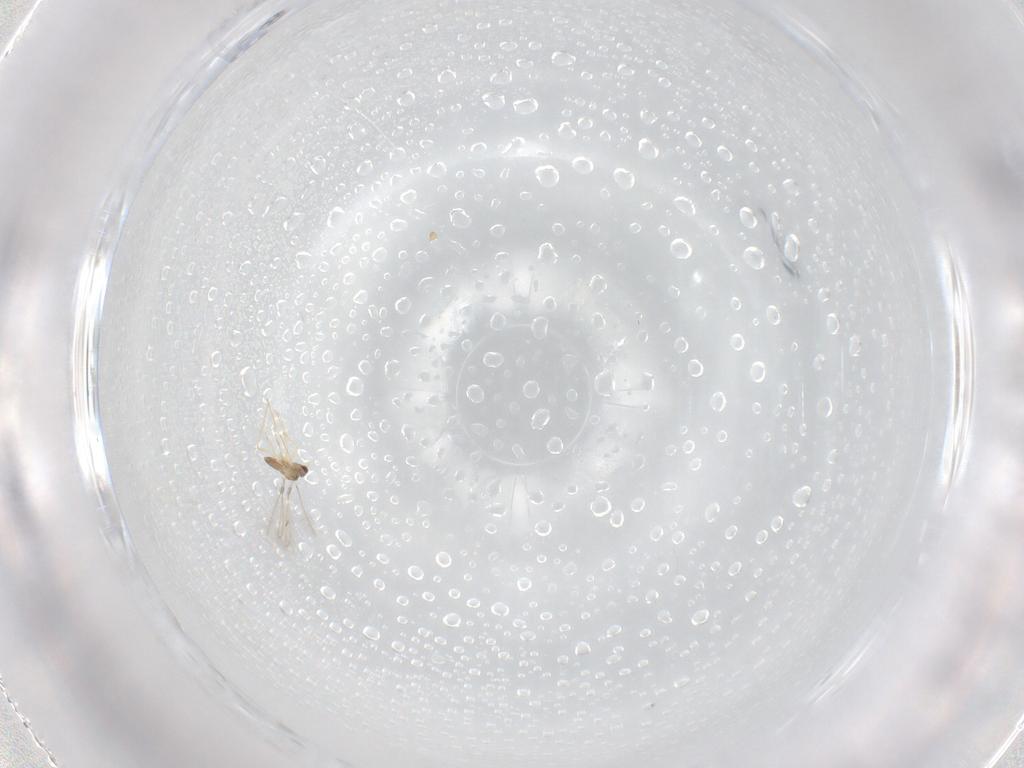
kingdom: Animalia
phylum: Arthropoda
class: Insecta
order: Hymenoptera
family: Mymaridae
